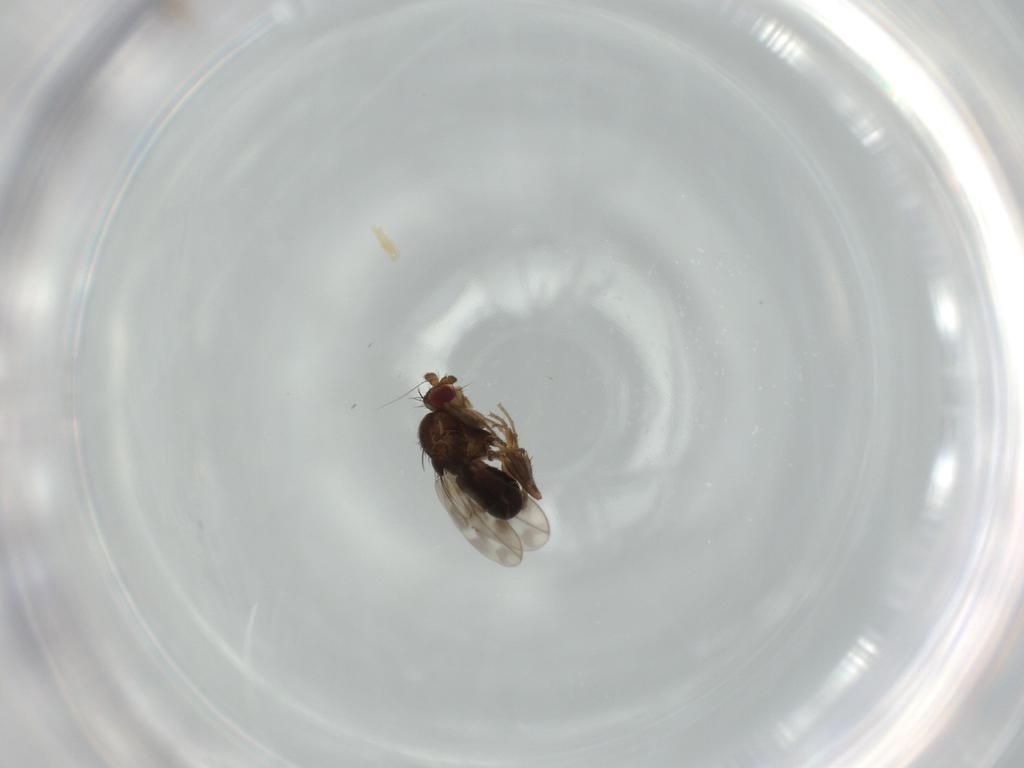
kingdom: Animalia
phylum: Arthropoda
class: Insecta
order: Diptera
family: Sphaeroceridae
